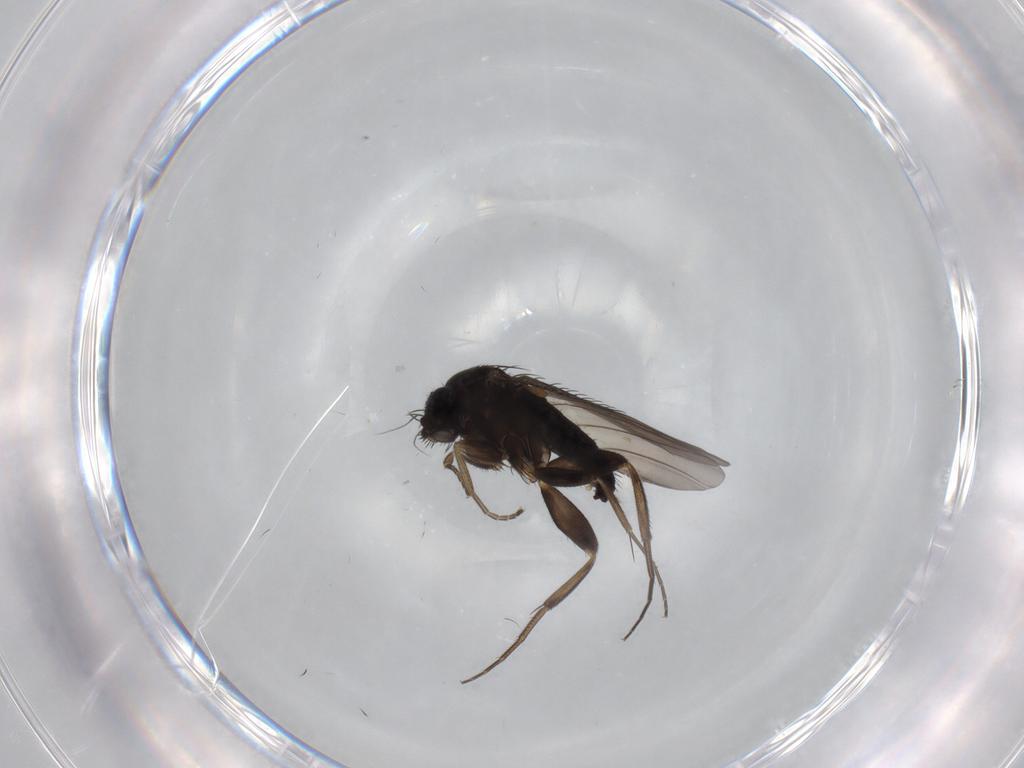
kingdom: Animalia
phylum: Arthropoda
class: Insecta
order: Diptera
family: Phoridae
